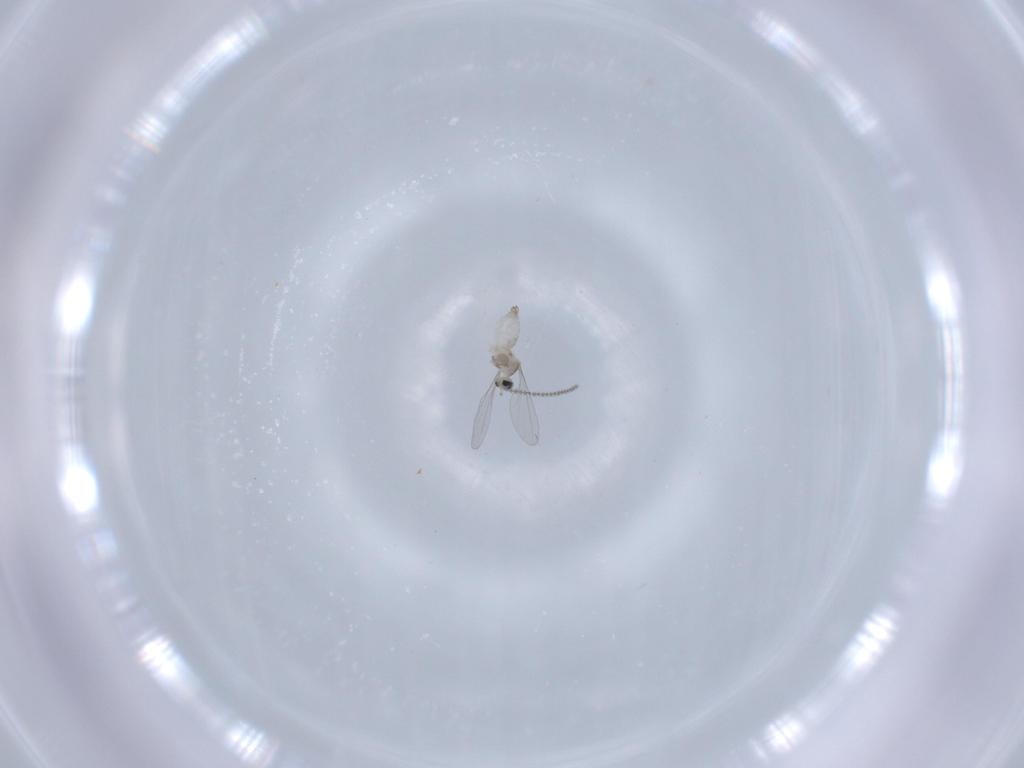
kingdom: Animalia
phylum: Arthropoda
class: Insecta
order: Diptera
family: Cecidomyiidae
